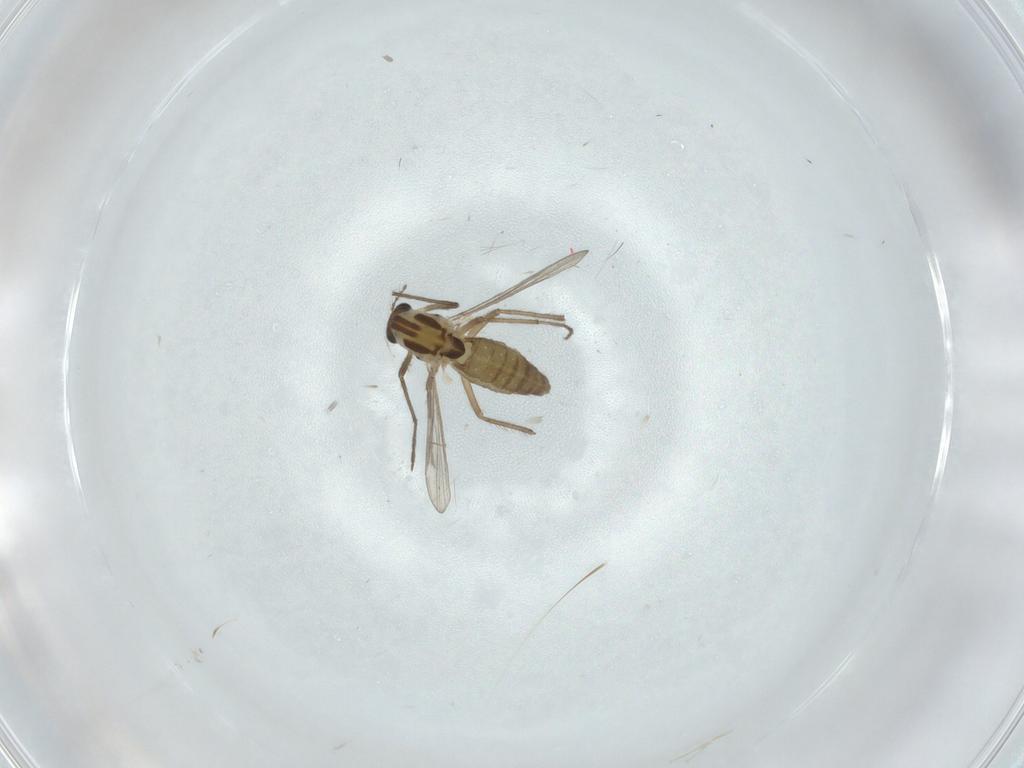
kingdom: Animalia
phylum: Arthropoda
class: Insecta
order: Diptera
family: Chironomidae
